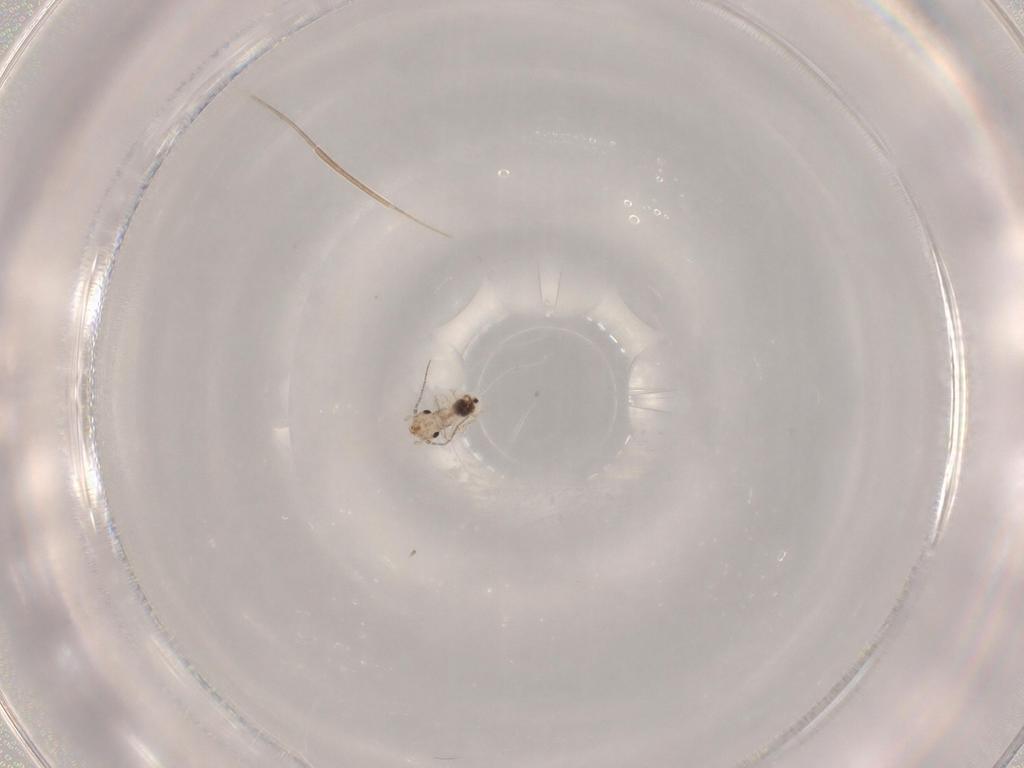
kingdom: Animalia
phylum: Arthropoda
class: Insecta
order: Psocodea
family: Lepidopsocidae
